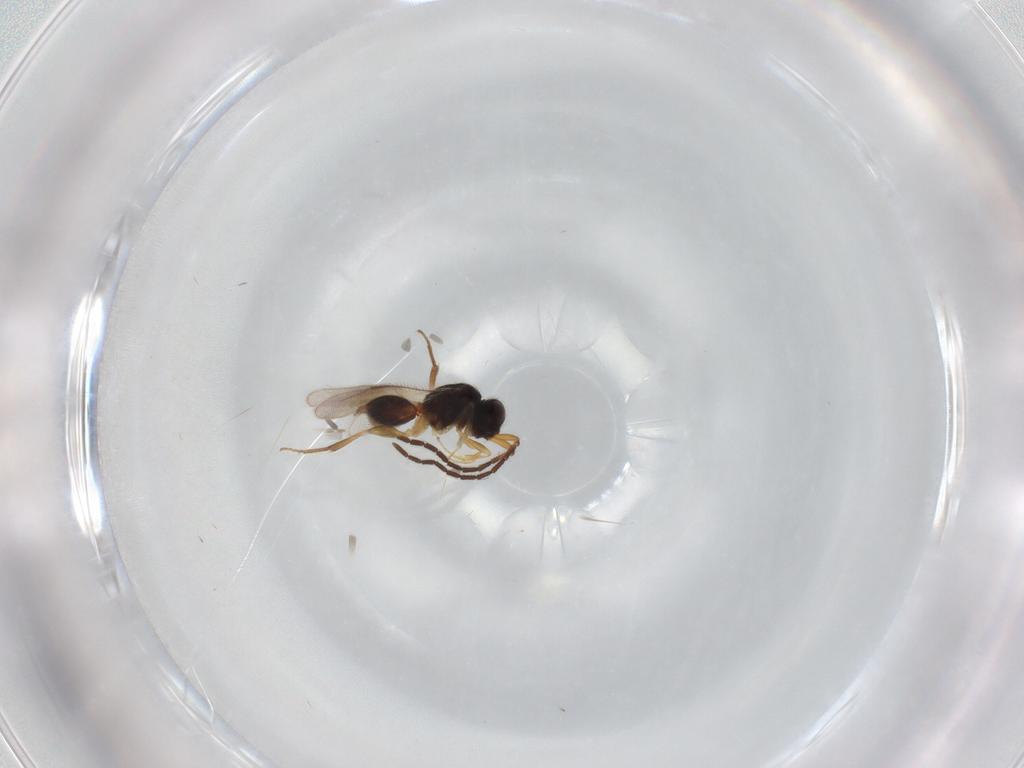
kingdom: Animalia
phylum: Arthropoda
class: Insecta
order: Hymenoptera
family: Megaspilidae
